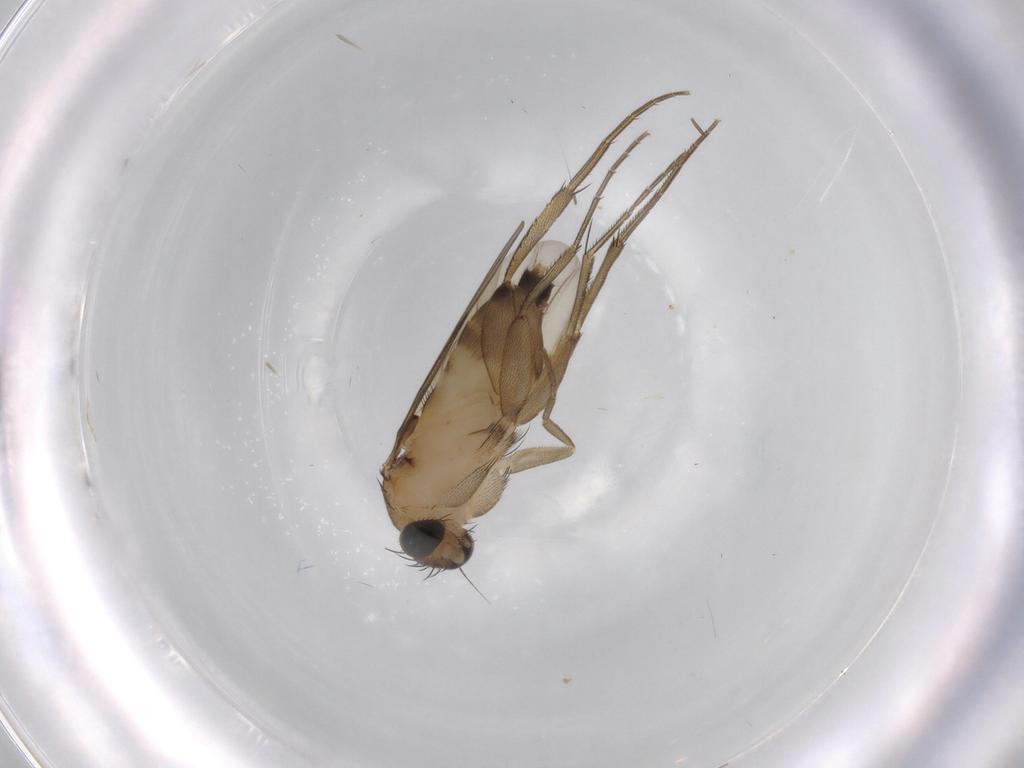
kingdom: Animalia
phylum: Arthropoda
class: Insecta
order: Diptera
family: Phoridae
